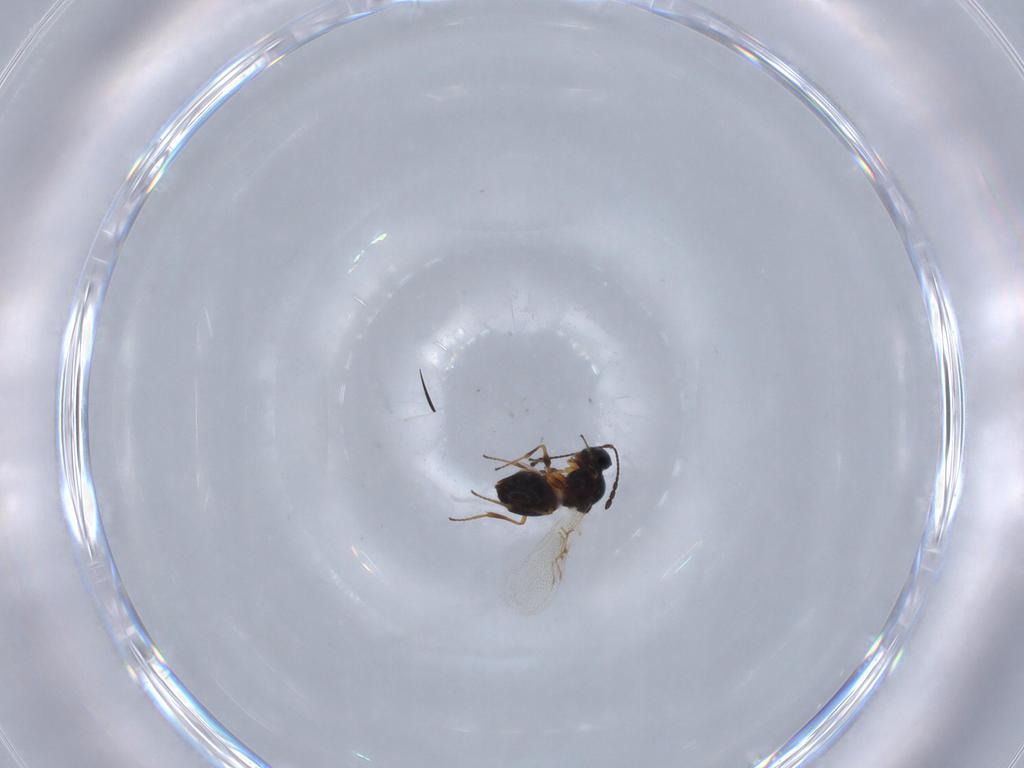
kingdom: Animalia
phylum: Arthropoda
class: Insecta
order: Hymenoptera
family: Figitidae
